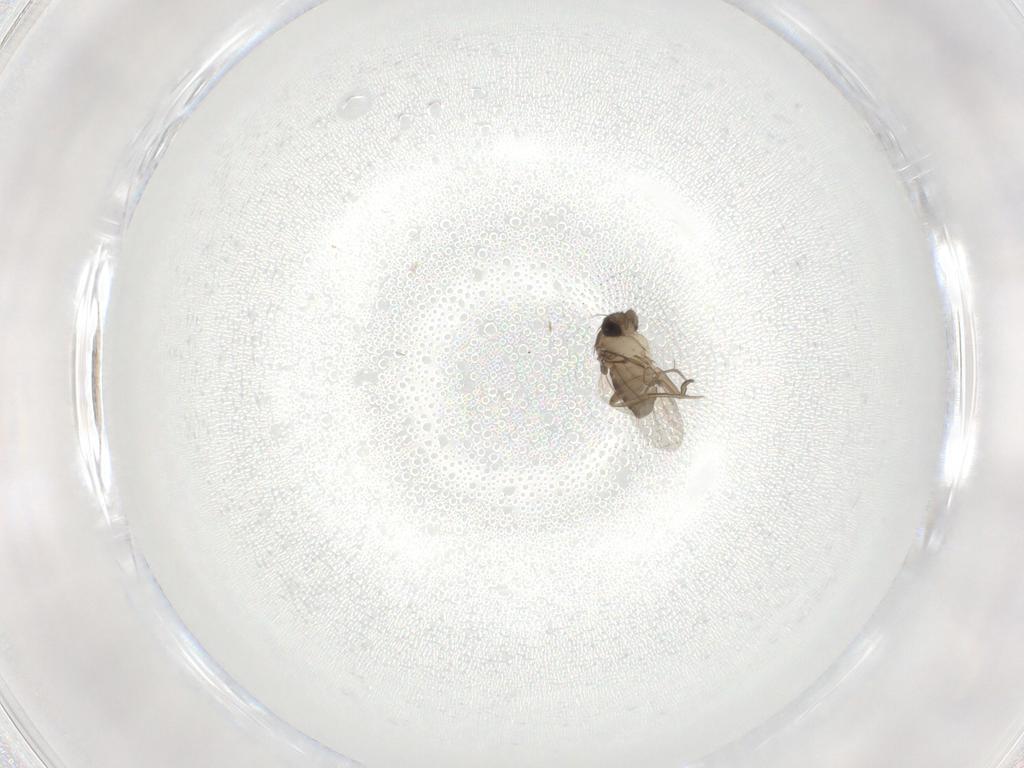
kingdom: Animalia
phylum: Arthropoda
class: Insecta
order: Diptera
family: Phoridae
